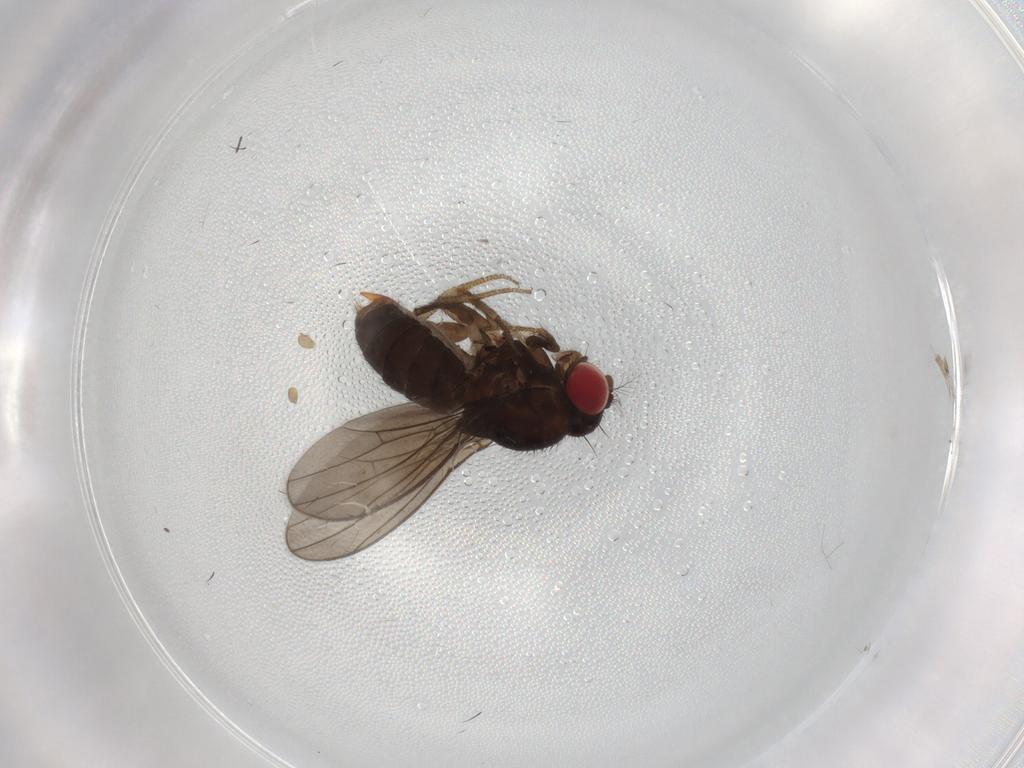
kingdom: Animalia
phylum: Arthropoda
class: Insecta
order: Diptera
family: Drosophilidae
